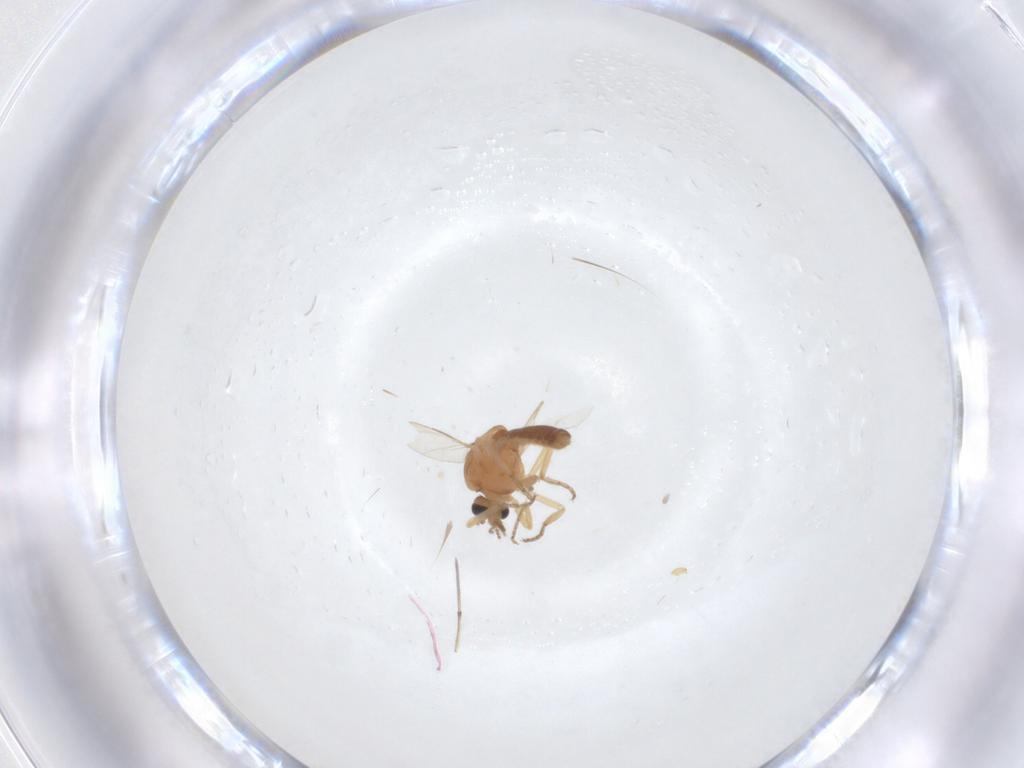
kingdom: Animalia
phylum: Arthropoda
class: Insecta
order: Diptera
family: Ceratopogonidae
